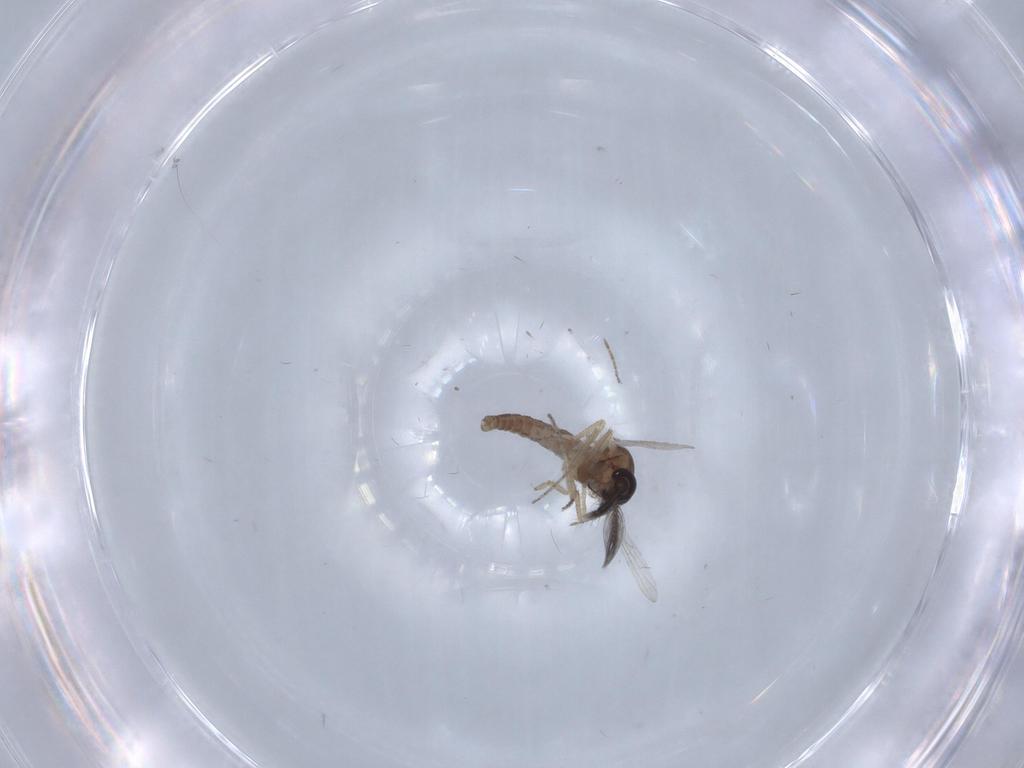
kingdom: Animalia
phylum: Arthropoda
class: Insecta
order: Diptera
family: Ceratopogonidae
